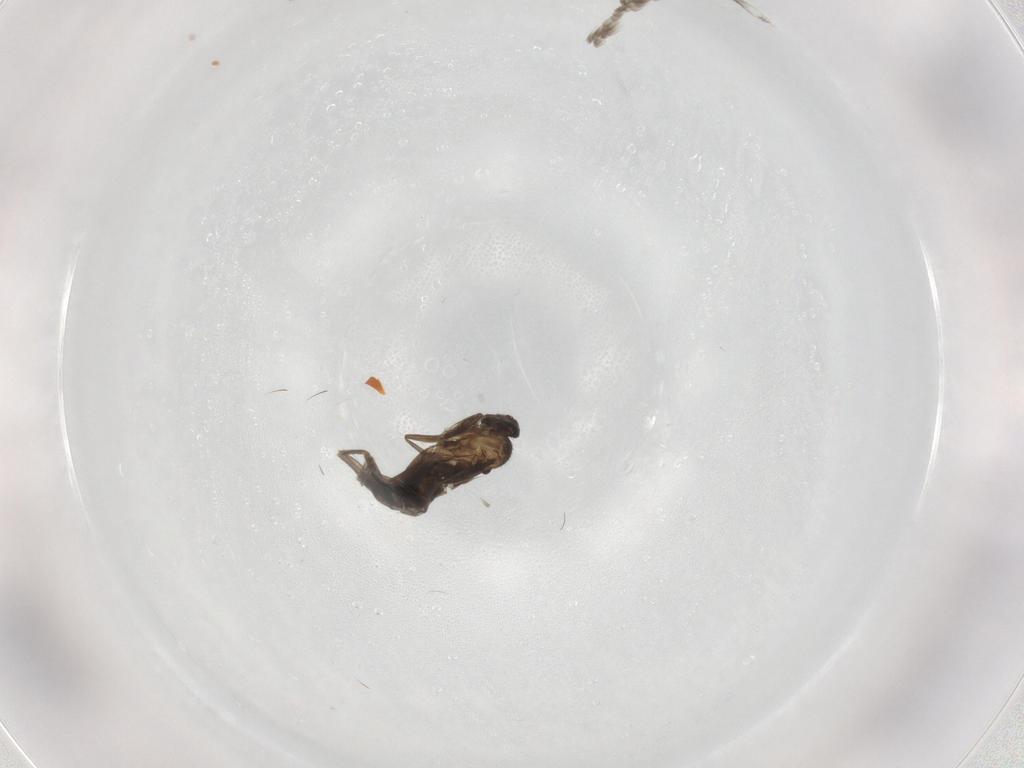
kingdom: Animalia
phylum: Arthropoda
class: Insecta
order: Diptera
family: Phoridae
